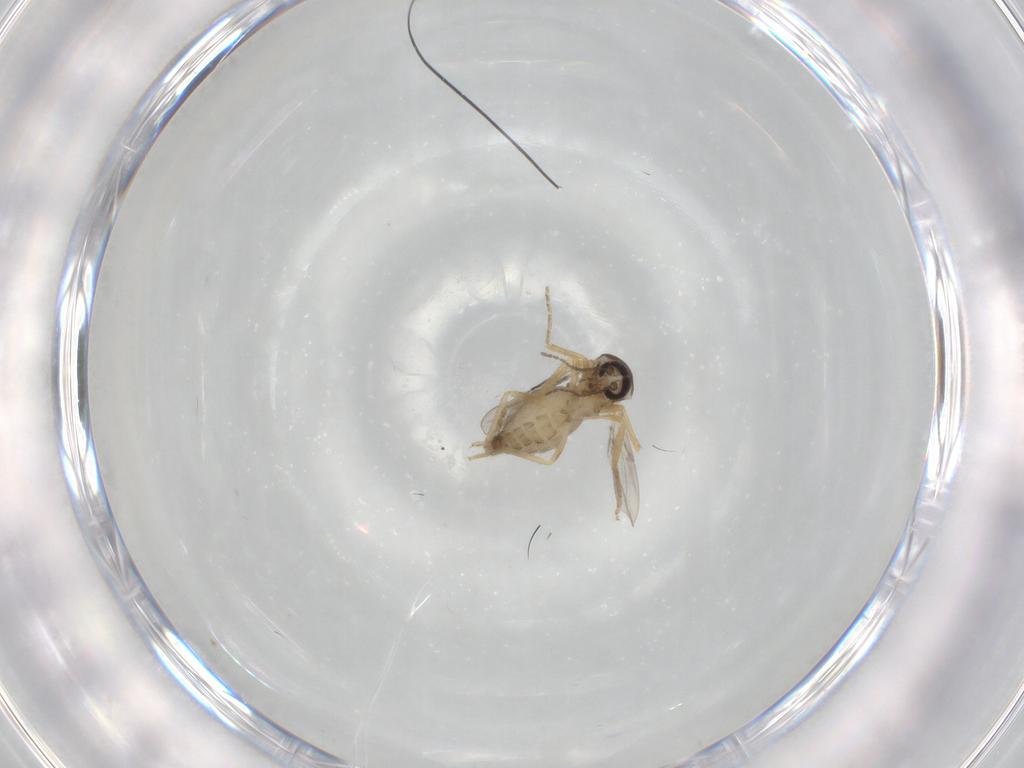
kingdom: Animalia
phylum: Arthropoda
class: Insecta
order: Diptera
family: Ceratopogonidae
